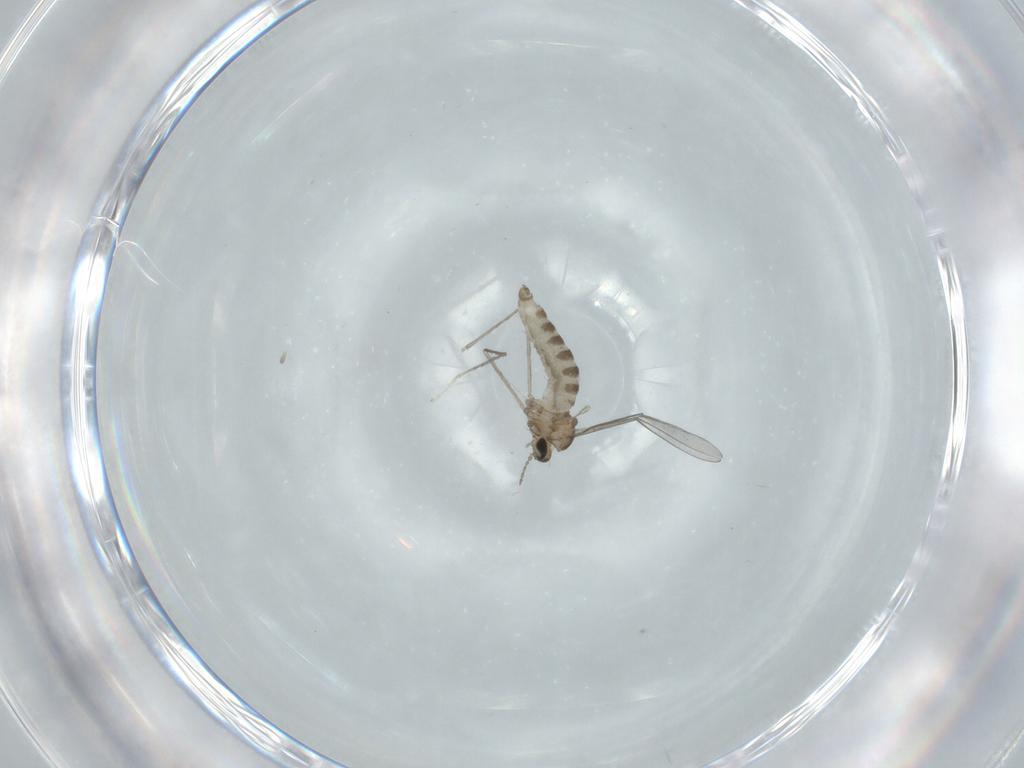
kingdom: Animalia
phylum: Arthropoda
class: Insecta
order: Diptera
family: Cecidomyiidae
